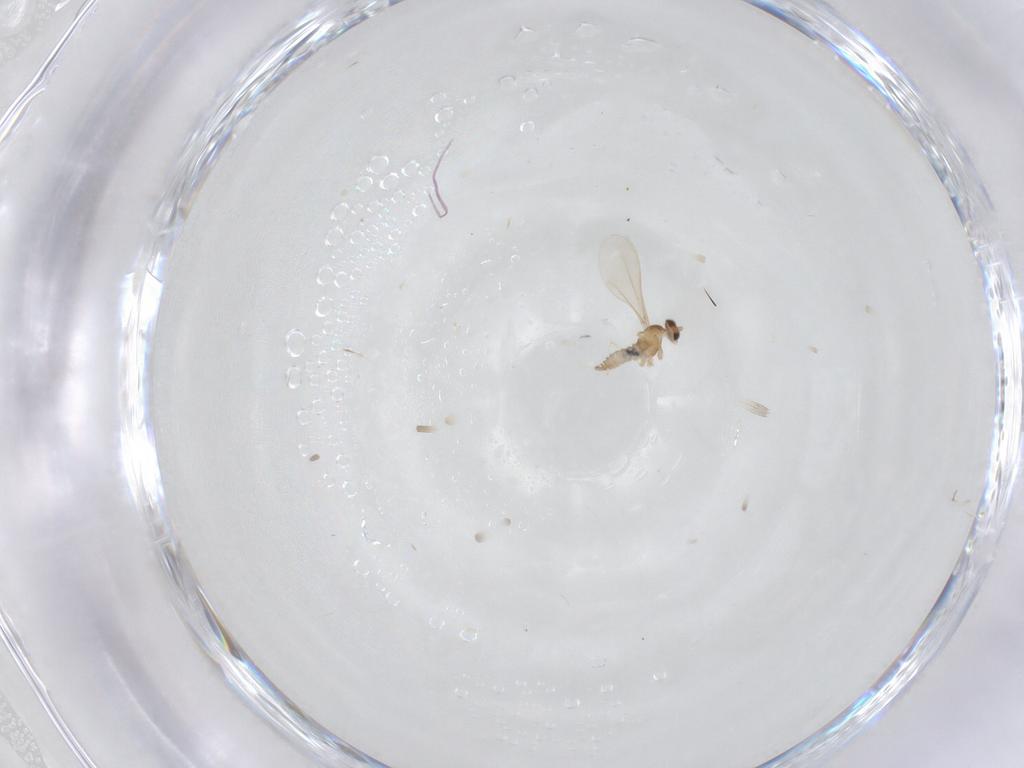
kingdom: Animalia
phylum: Arthropoda
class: Insecta
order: Diptera
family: Cecidomyiidae
